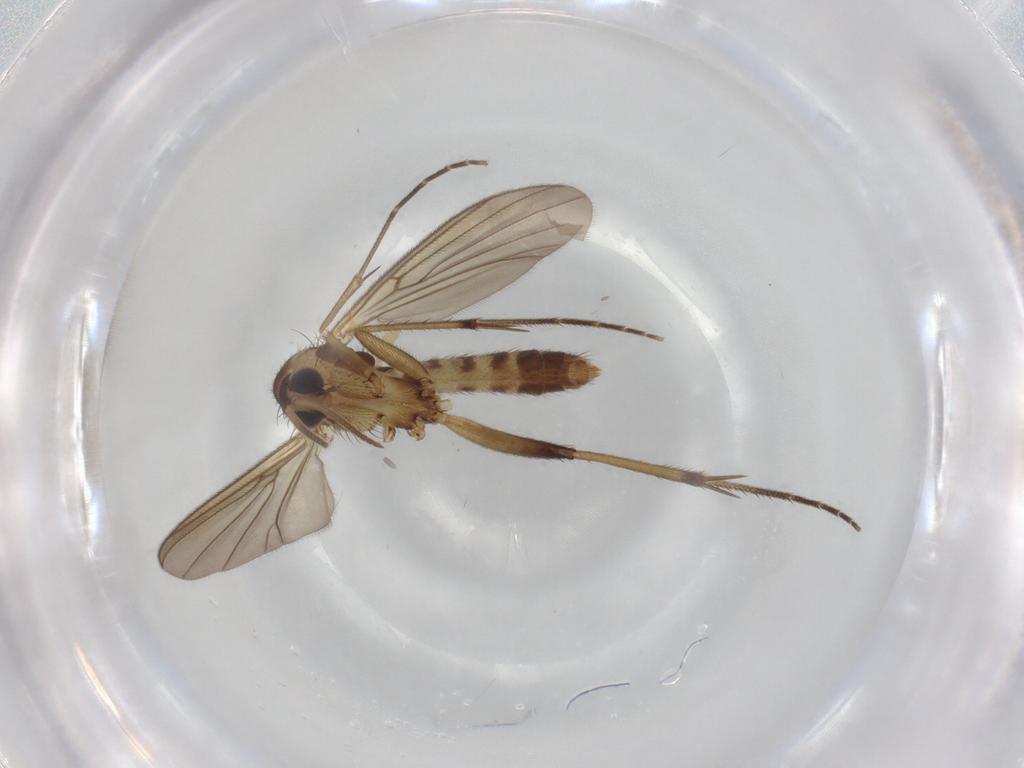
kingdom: Animalia
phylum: Arthropoda
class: Insecta
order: Diptera
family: Mycetophilidae
